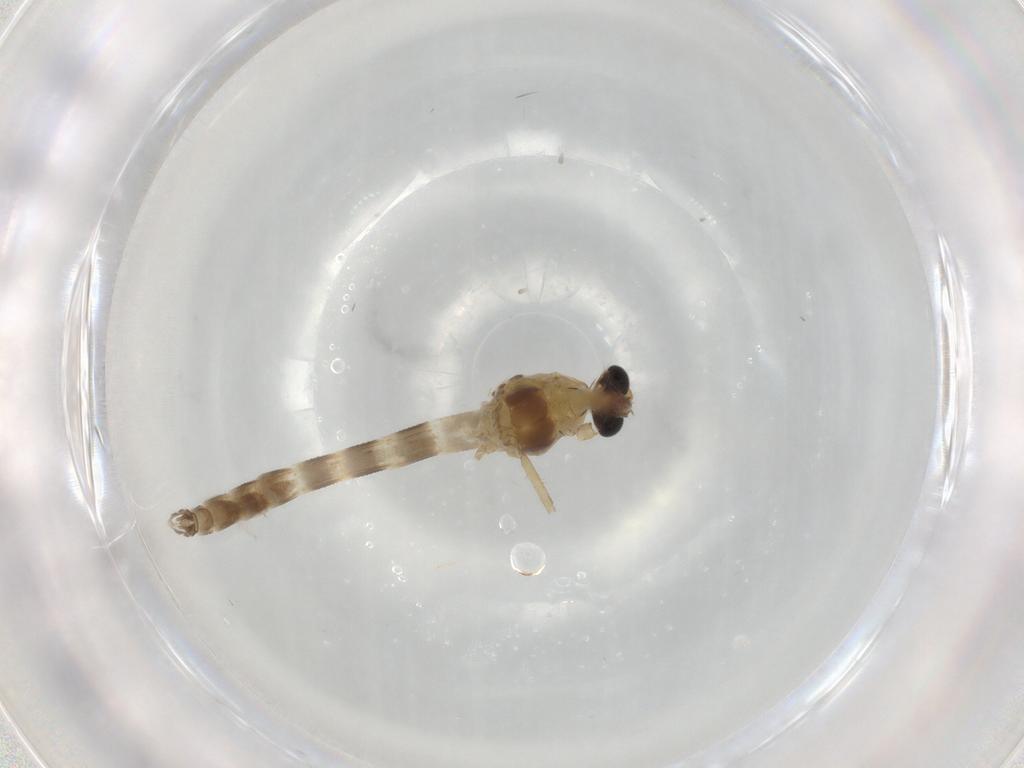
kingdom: Animalia
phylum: Arthropoda
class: Insecta
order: Diptera
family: Chironomidae
